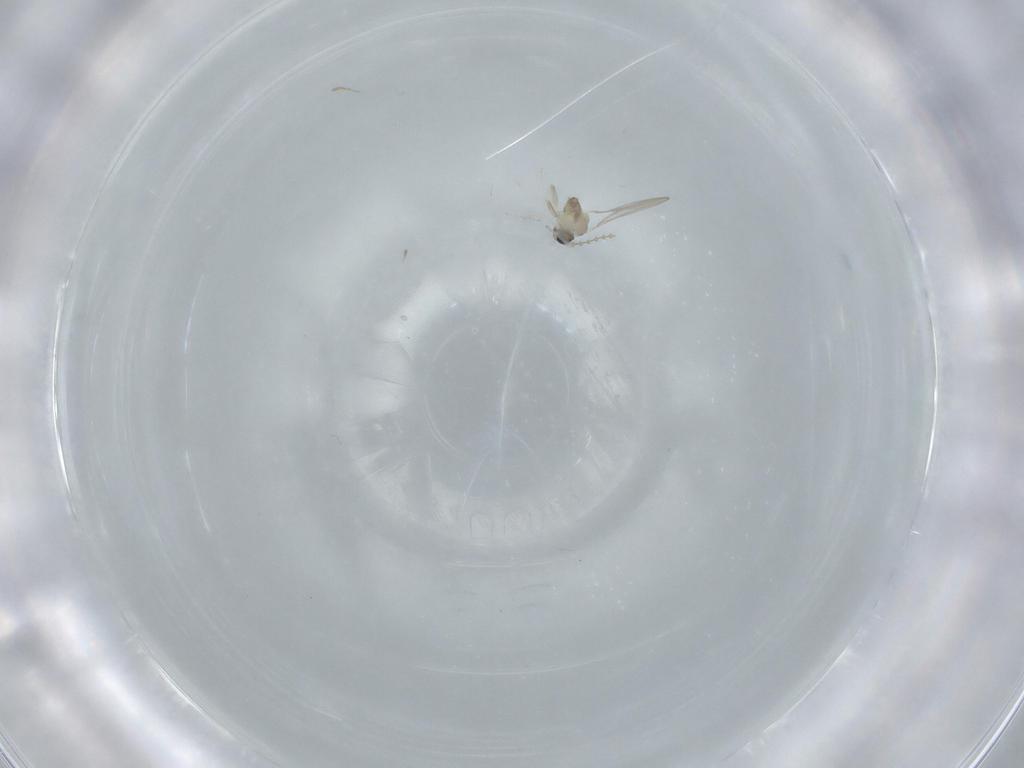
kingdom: Animalia
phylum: Arthropoda
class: Insecta
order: Diptera
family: Cecidomyiidae
